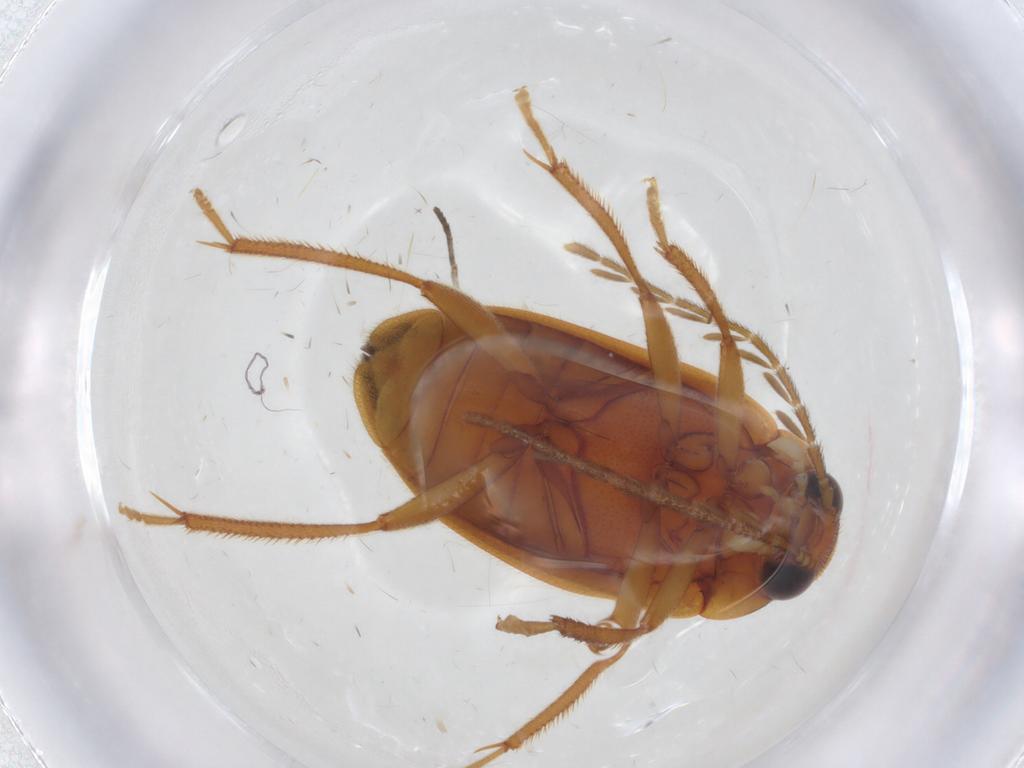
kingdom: Animalia
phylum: Arthropoda
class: Insecta
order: Coleoptera
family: Ptilodactylidae
